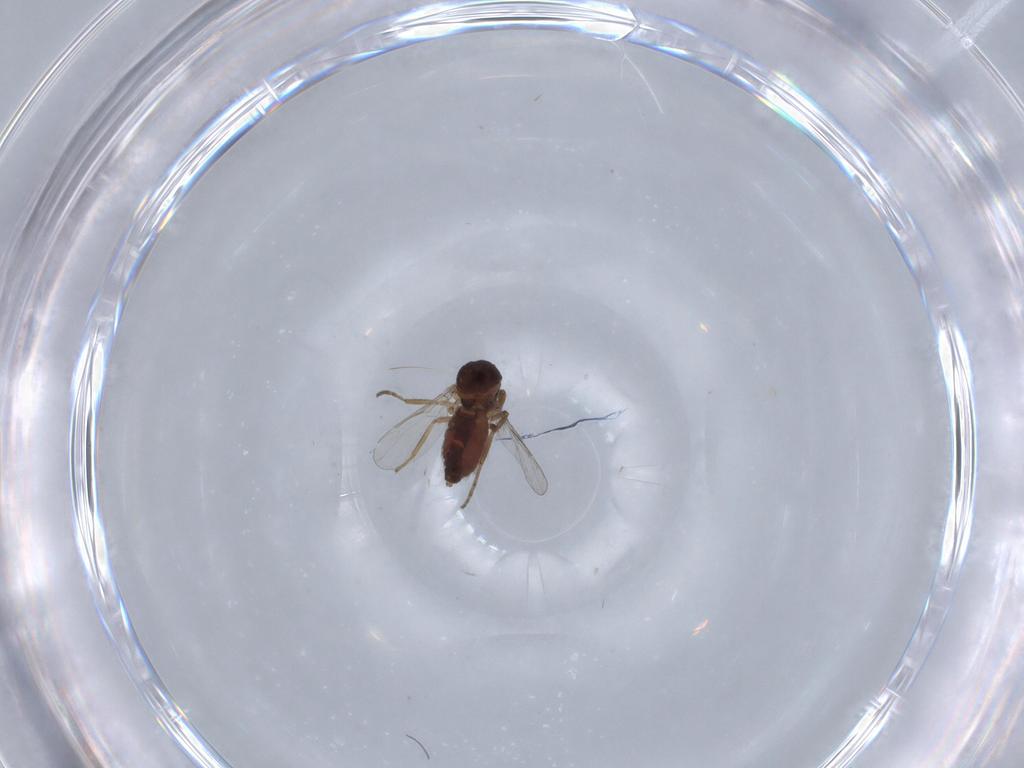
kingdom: Animalia
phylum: Arthropoda
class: Insecta
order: Diptera
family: Ceratopogonidae
